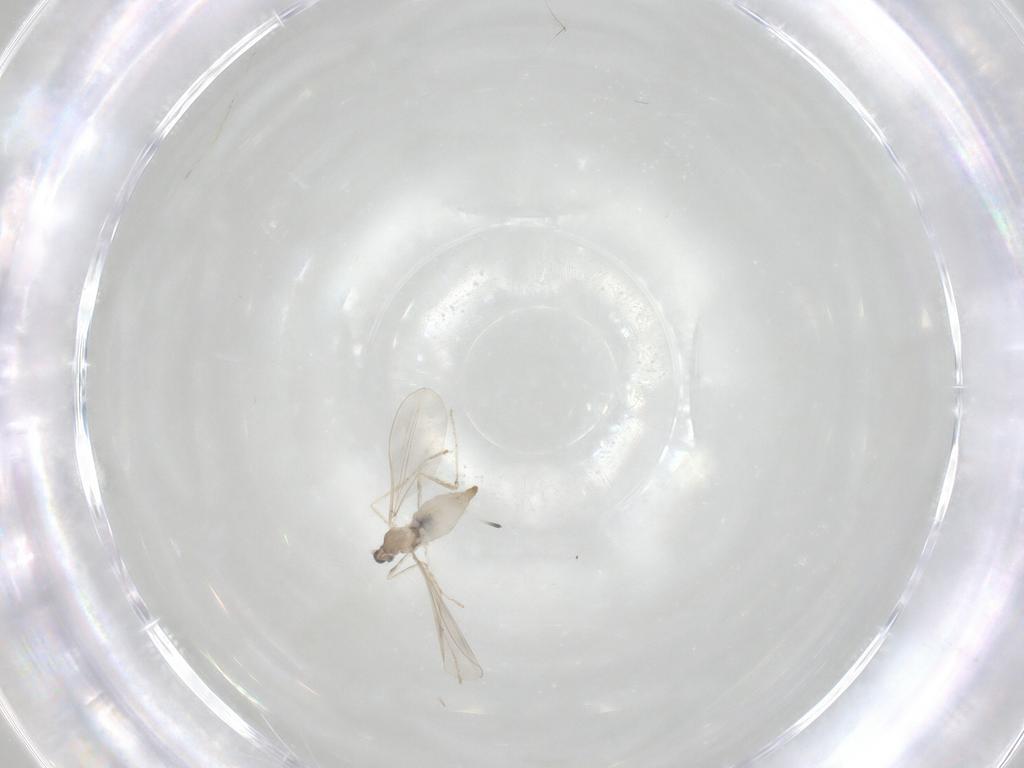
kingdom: Animalia
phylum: Arthropoda
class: Insecta
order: Diptera
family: Cecidomyiidae
